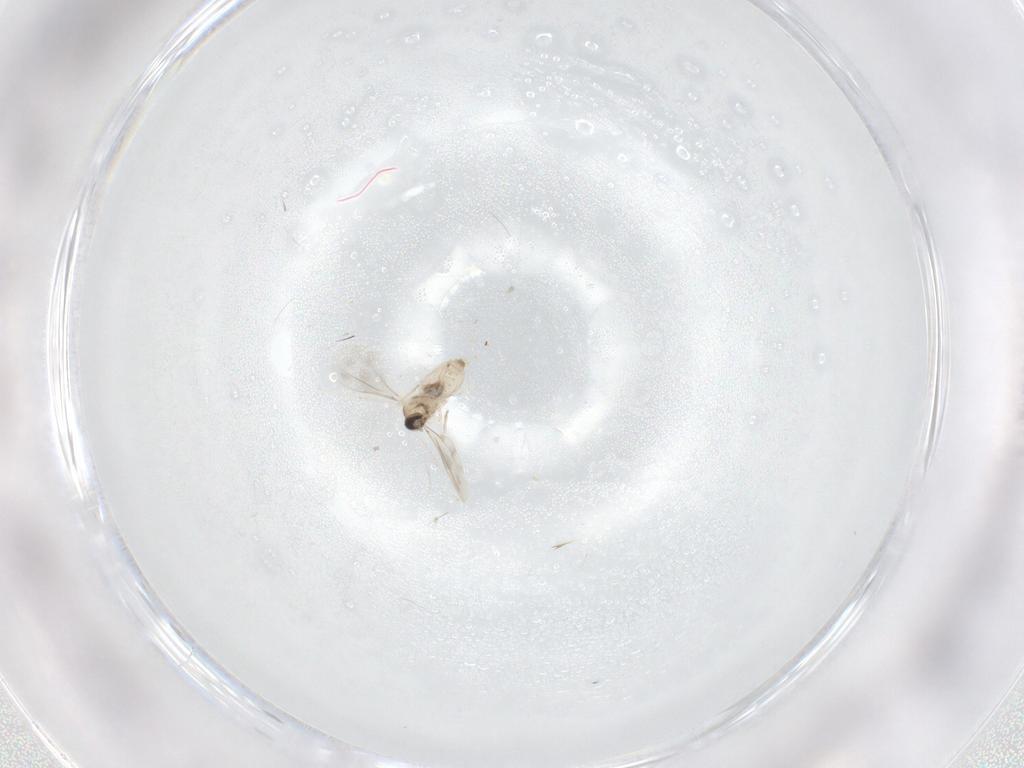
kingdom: Animalia
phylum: Arthropoda
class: Insecta
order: Diptera
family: Cecidomyiidae
